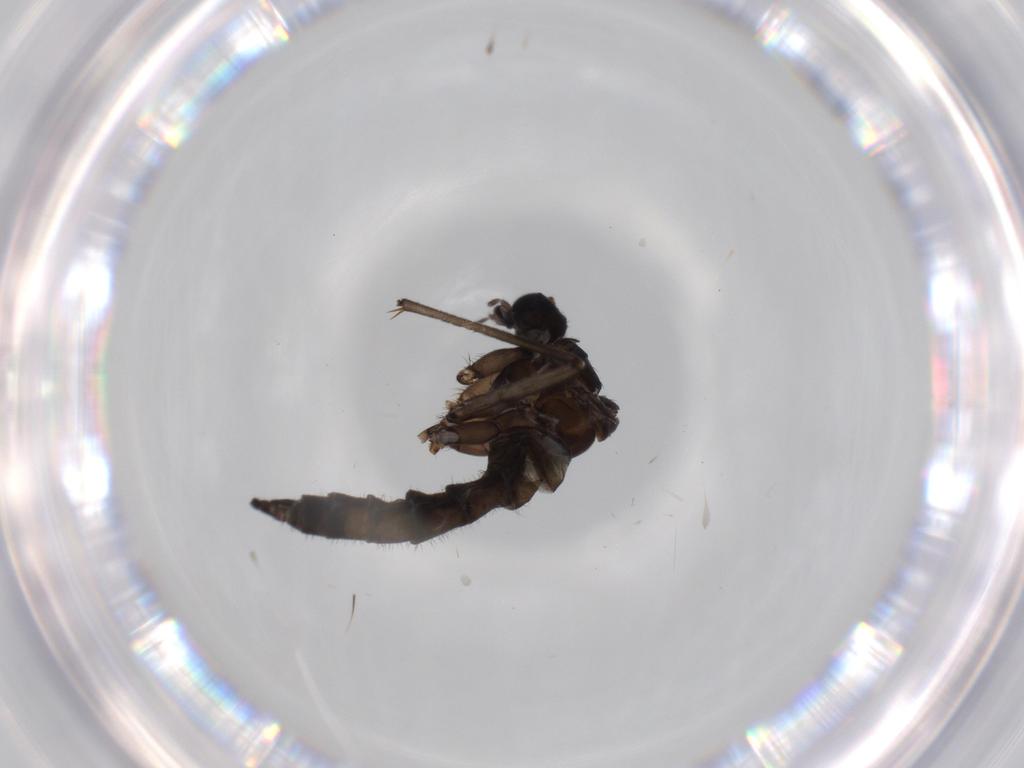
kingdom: Animalia
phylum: Arthropoda
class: Insecta
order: Diptera
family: Sciaridae
